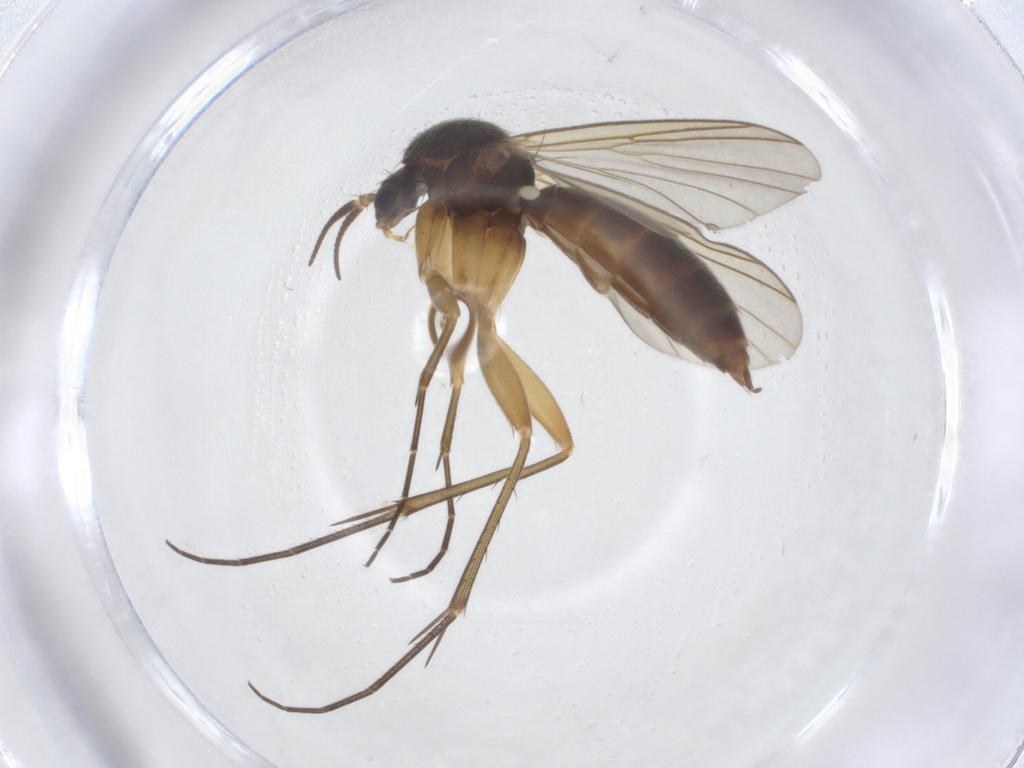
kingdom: Animalia
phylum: Arthropoda
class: Insecta
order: Diptera
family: Mycetophilidae
